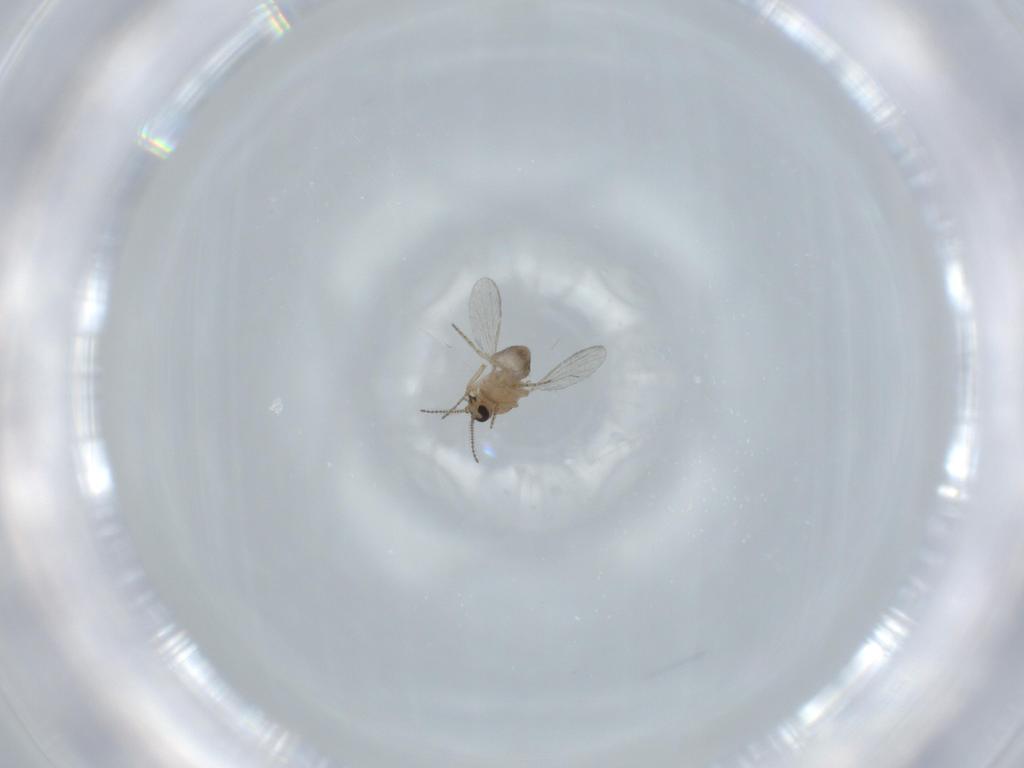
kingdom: Animalia
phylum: Arthropoda
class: Insecta
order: Diptera
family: Ceratopogonidae
